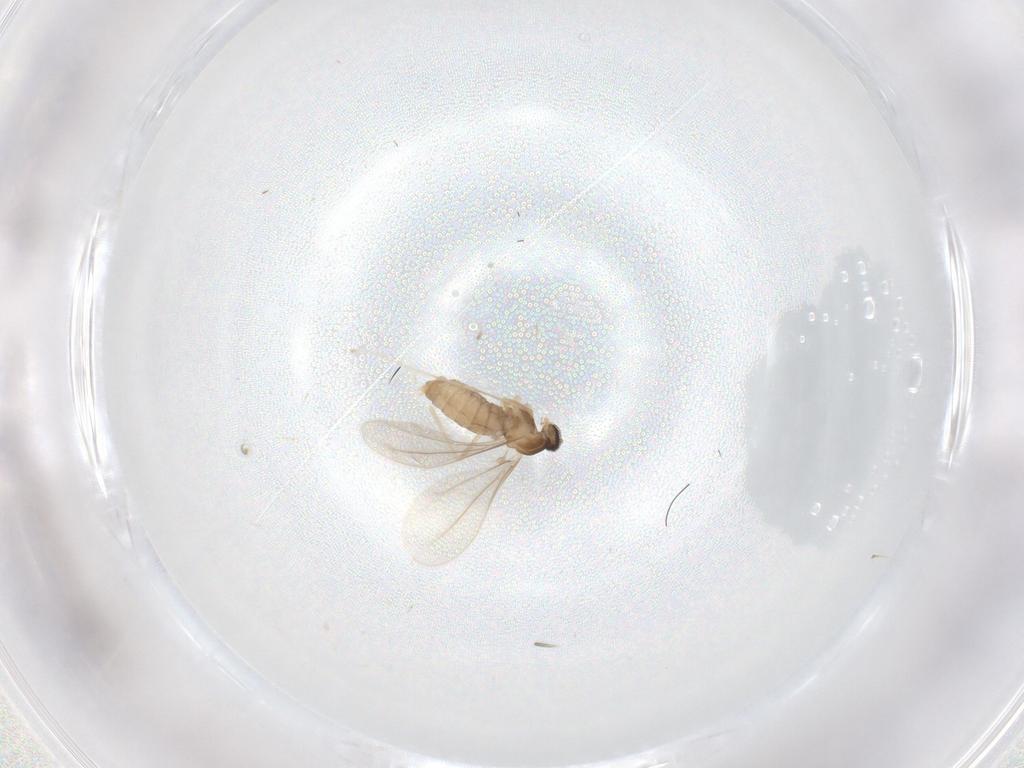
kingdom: Animalia
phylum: Arthropoda
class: Insecta
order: Diptera
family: Cecidomyiidae
